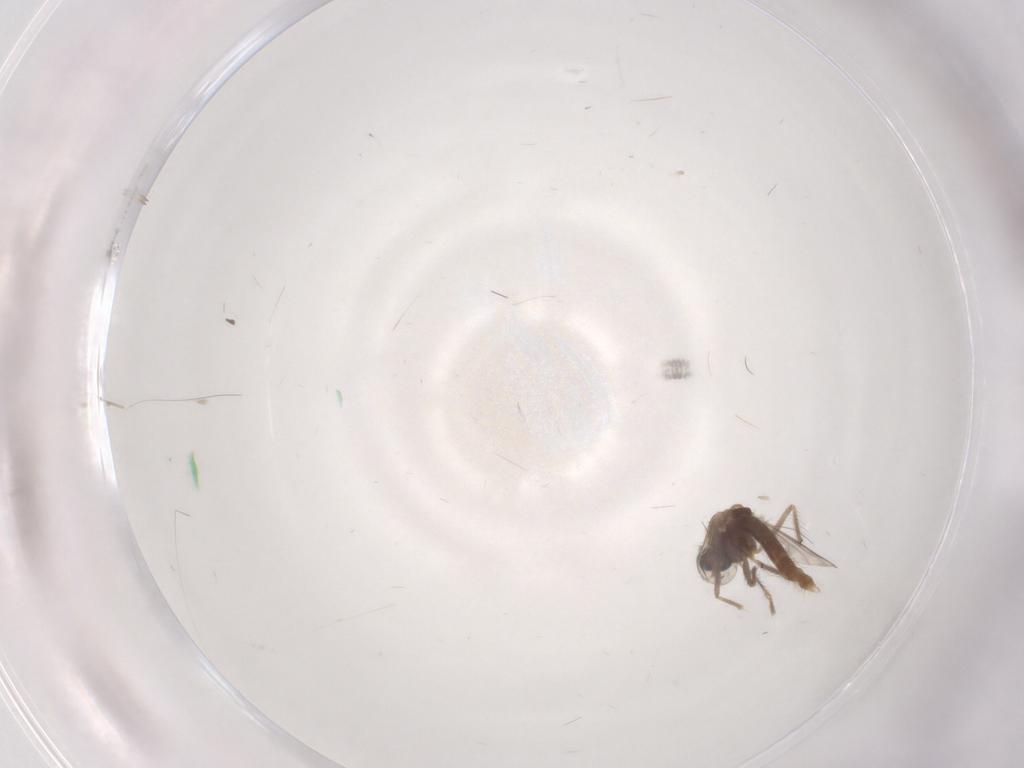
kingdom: Animalia
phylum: Arthropoda
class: Insecta
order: Diptera
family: Chironomidae
